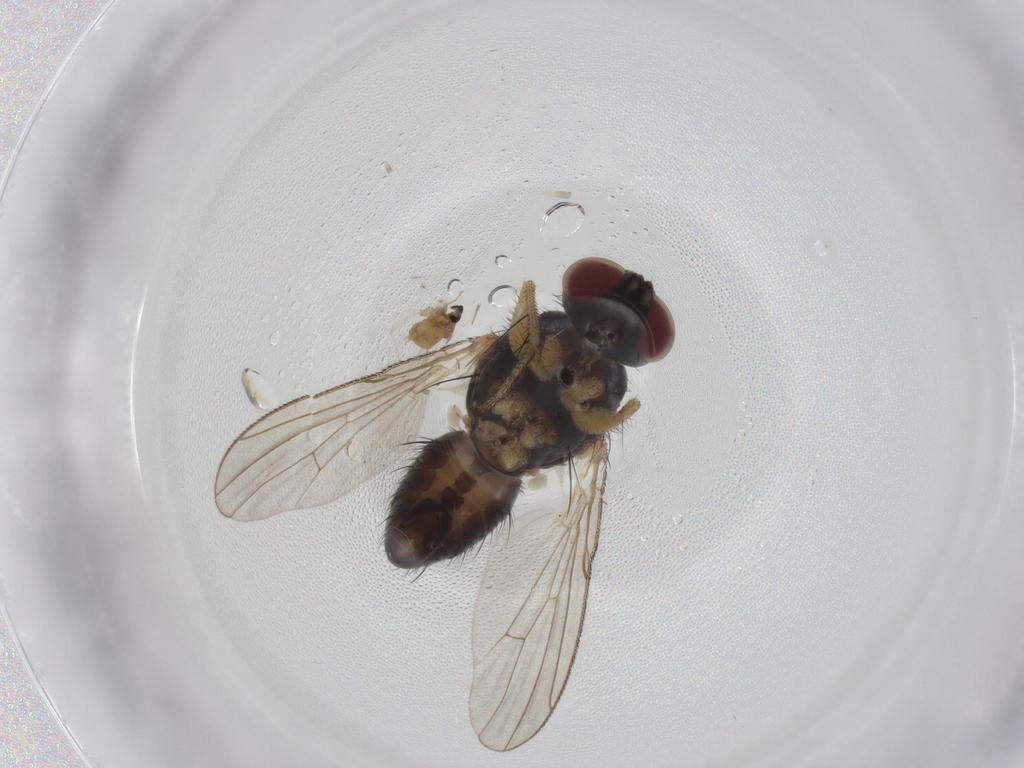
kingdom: Animalia
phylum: Arthropoda
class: Insecta
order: Diptera
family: Cecidomyiidae
